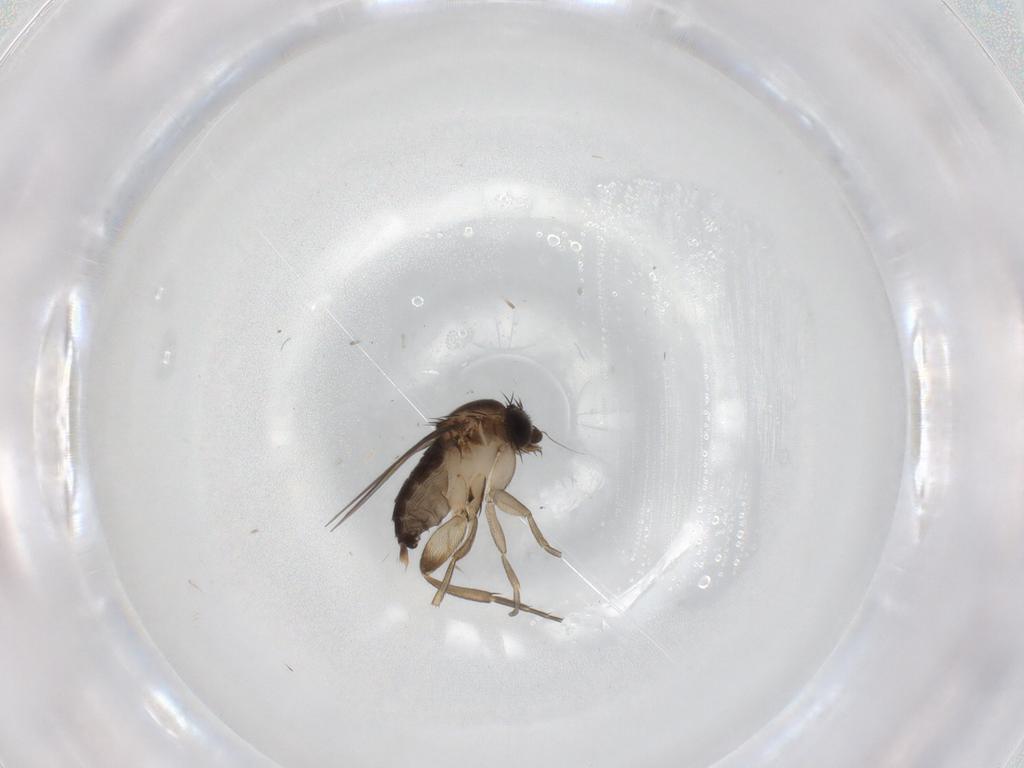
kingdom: Animalia
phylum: Arthropoda
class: Insecta
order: Diptera
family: Phoridae
